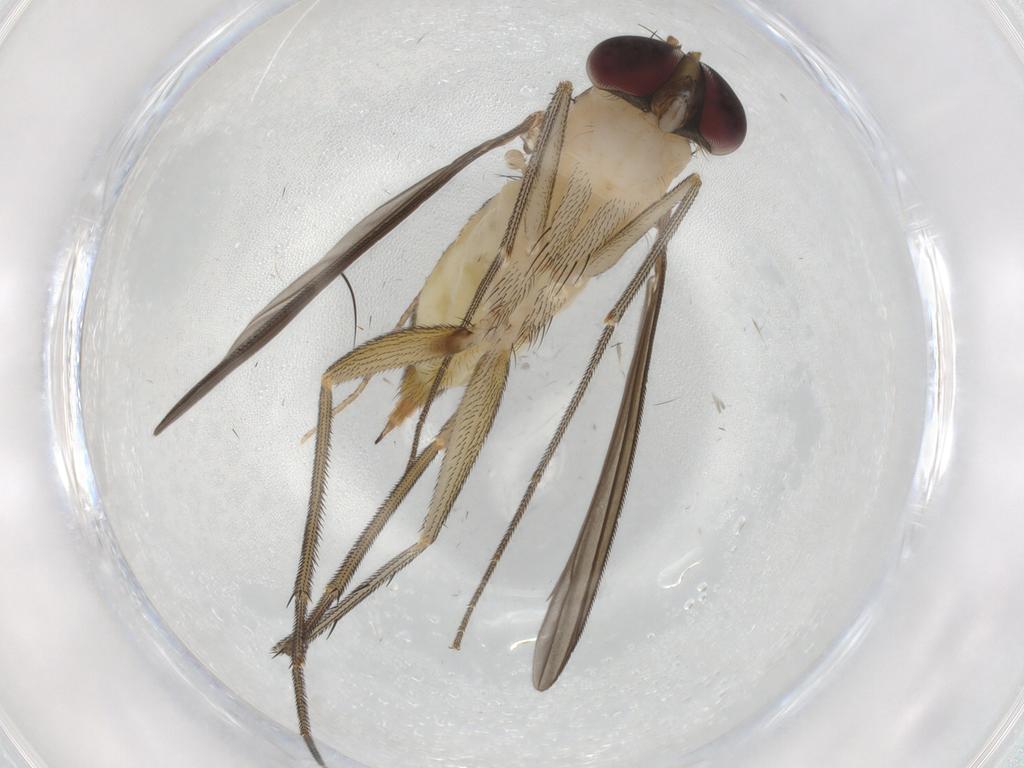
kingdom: Animalia
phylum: Arthropoda
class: Insecta
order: Diptera
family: Dolichopodidae
